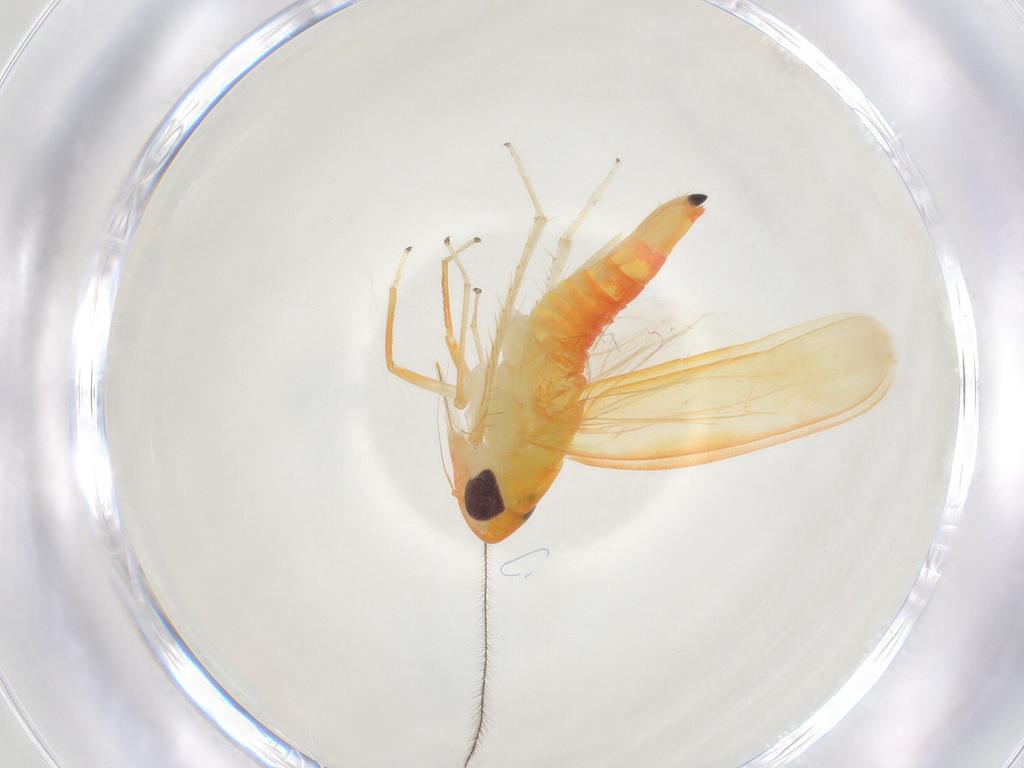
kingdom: Animalia
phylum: Arthropoda
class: Insecta
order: Hemiptera
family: Cicadellidae
